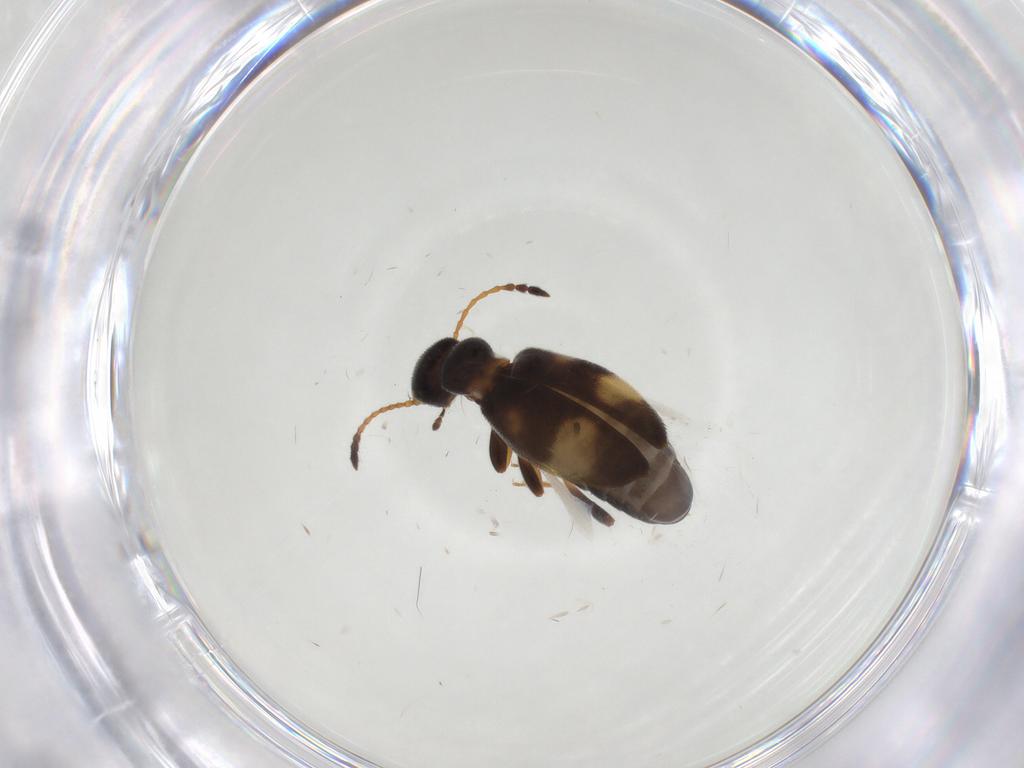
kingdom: Animalia
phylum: Arthropoda
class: Insecta
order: Coleoptera
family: Anthicidae
